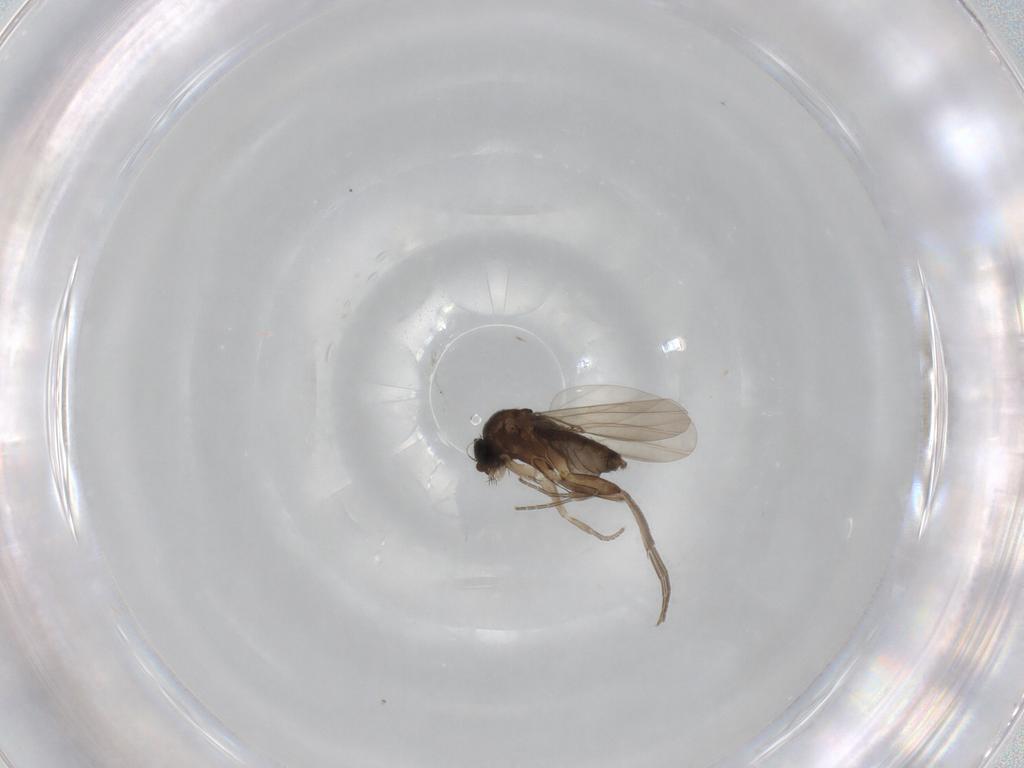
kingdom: Animalia
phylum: Arthropoda
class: Insecta
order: Diptera
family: Phoridae
